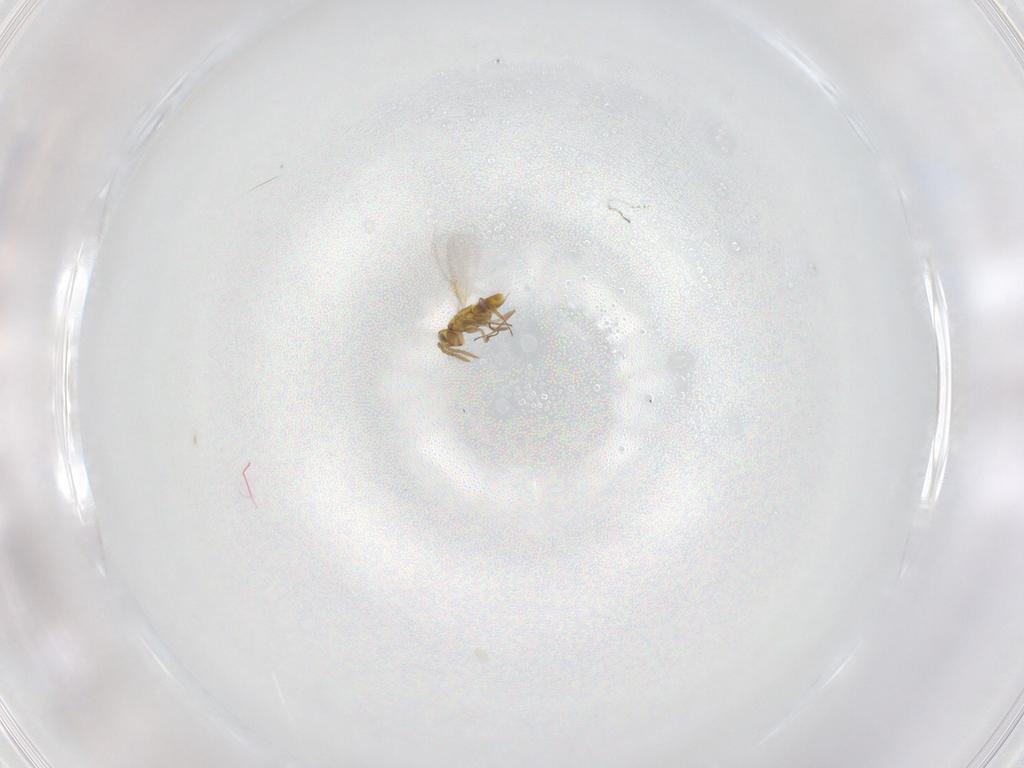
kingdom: Animalia
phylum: Arthropoda
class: Insecta
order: Hymenoptera
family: Aphelinidae
